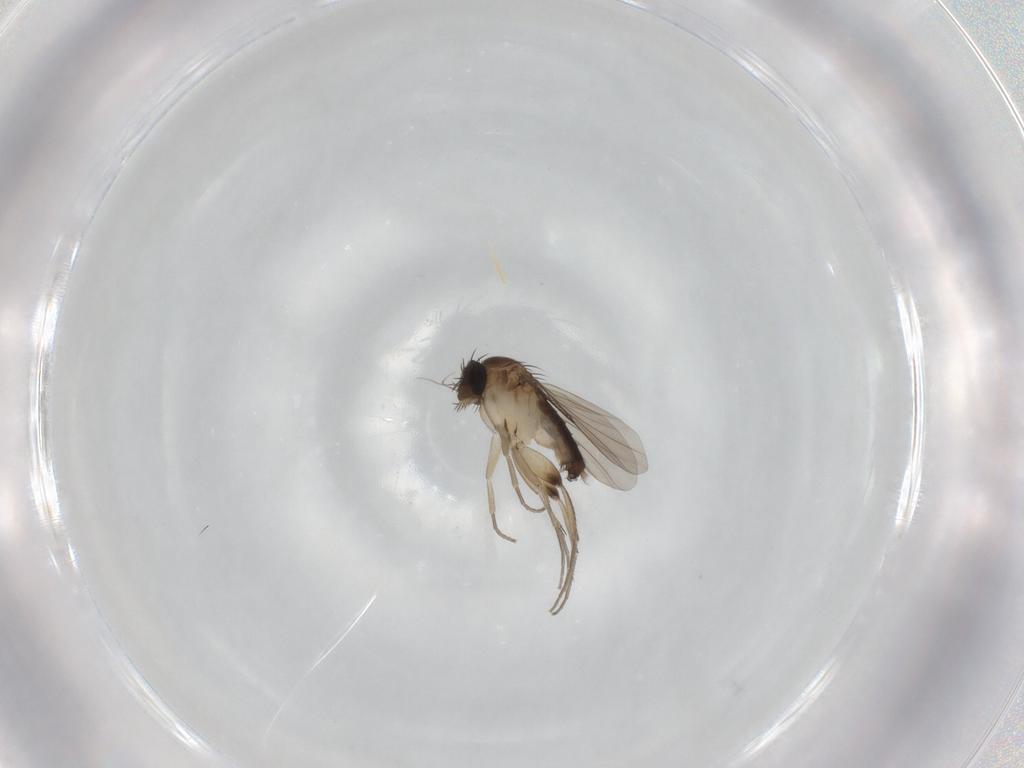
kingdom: Animalia
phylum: Arthropoda
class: Insecta
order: Diptera
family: Phoridae
